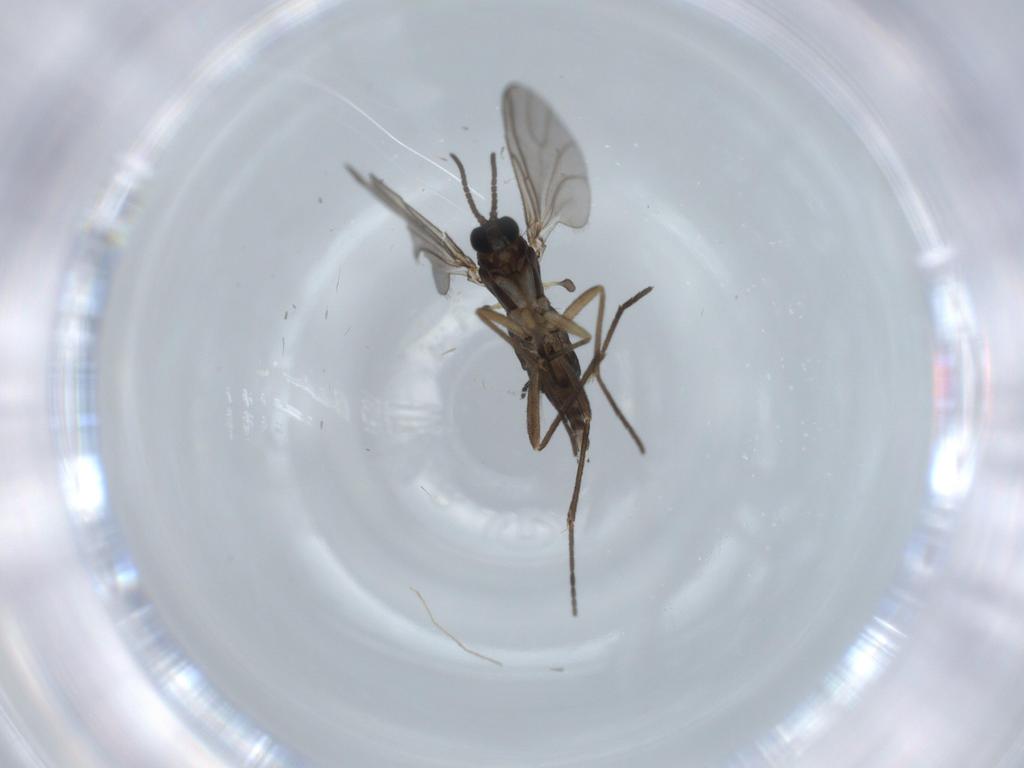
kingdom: Animalia
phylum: Arthropoda
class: Insecta
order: Diptera
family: Sciaridae
